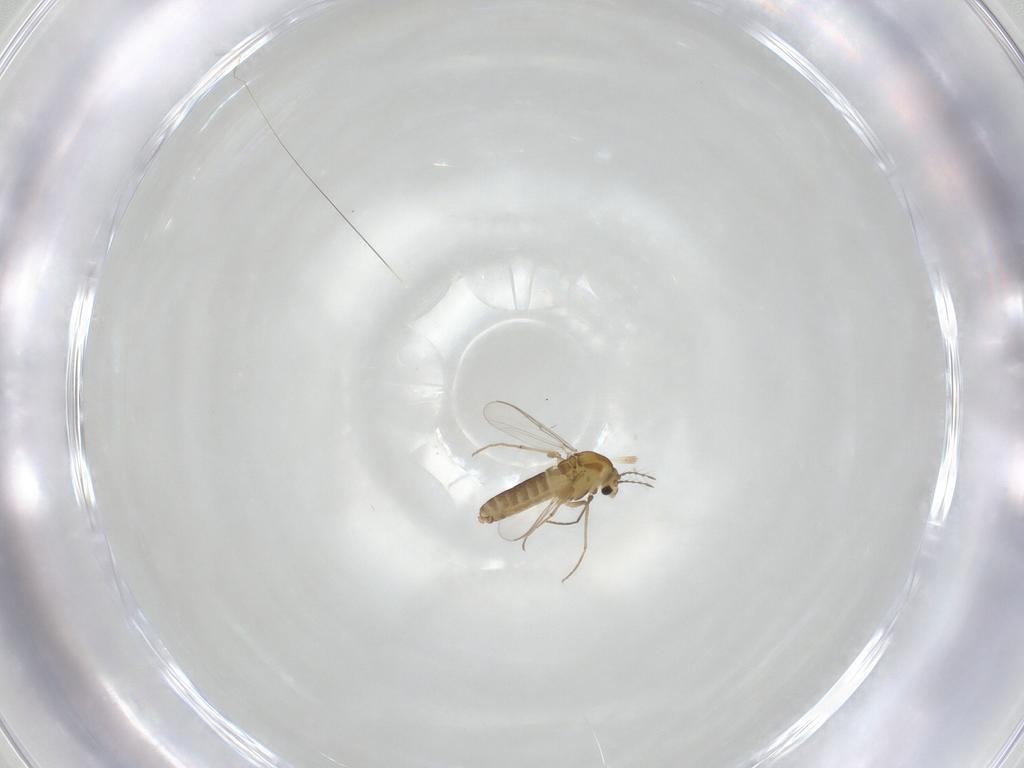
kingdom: Animalia
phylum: Arthropoda
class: Insecta
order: Diptera
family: Chironomidae
